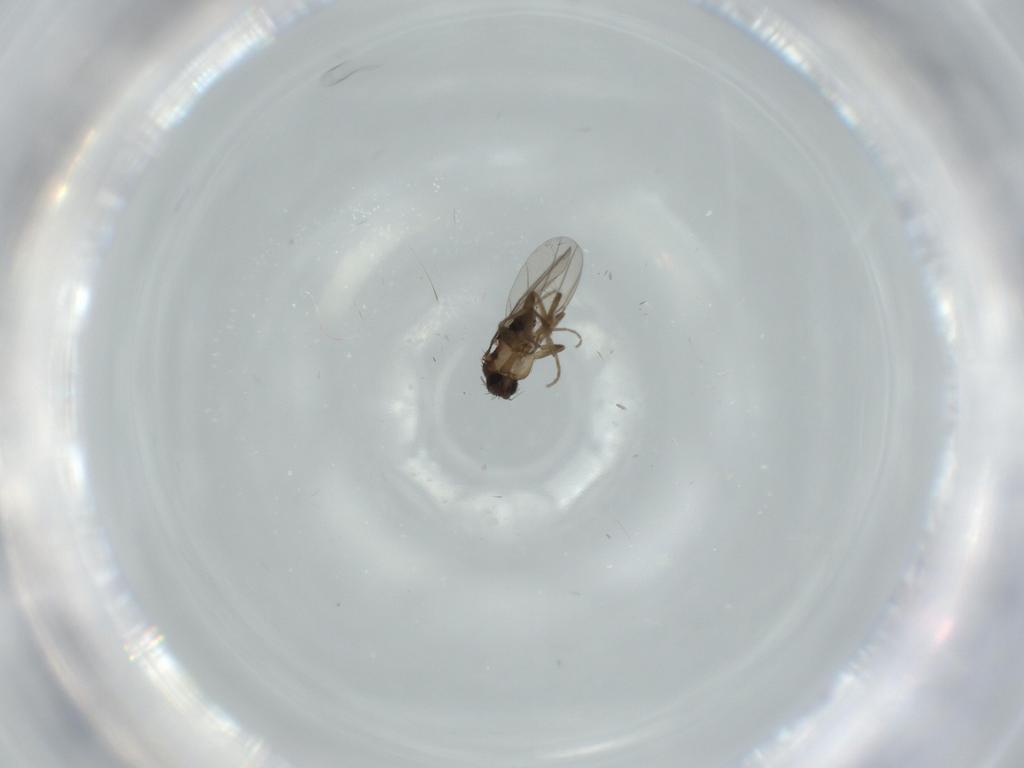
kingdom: Animalia
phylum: Arthropoda
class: Insecta
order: Diptera
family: Phoridae
